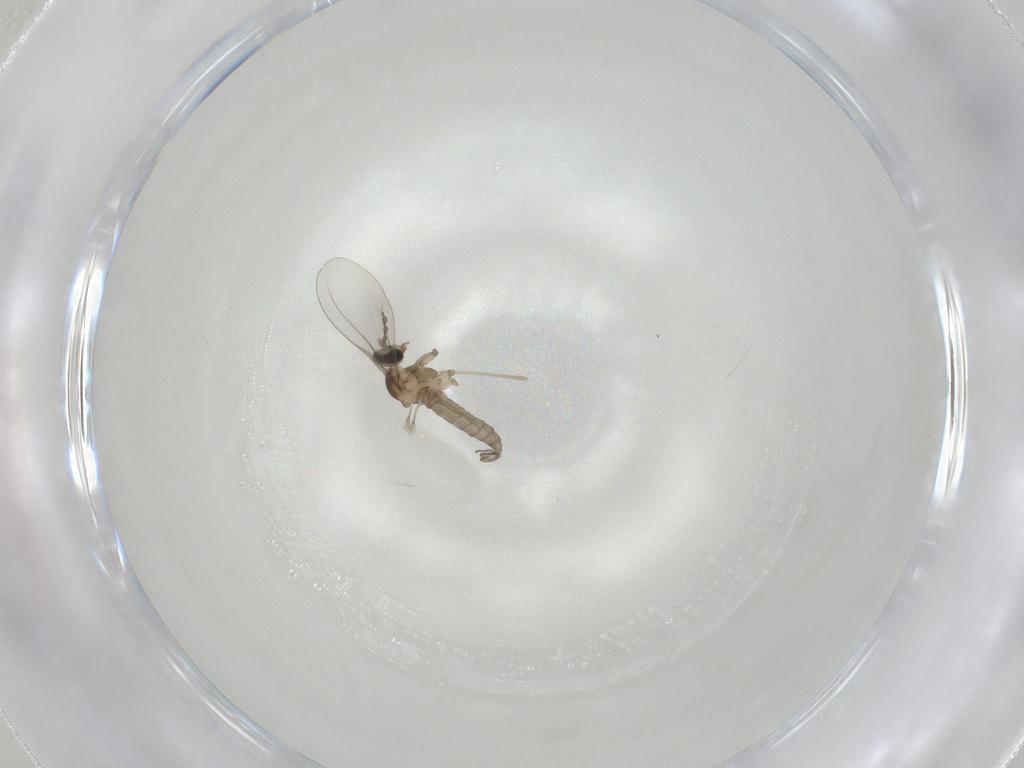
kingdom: Animalia
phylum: Arthropoda
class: Insecta
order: Diptera
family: Cecidomyiidae
